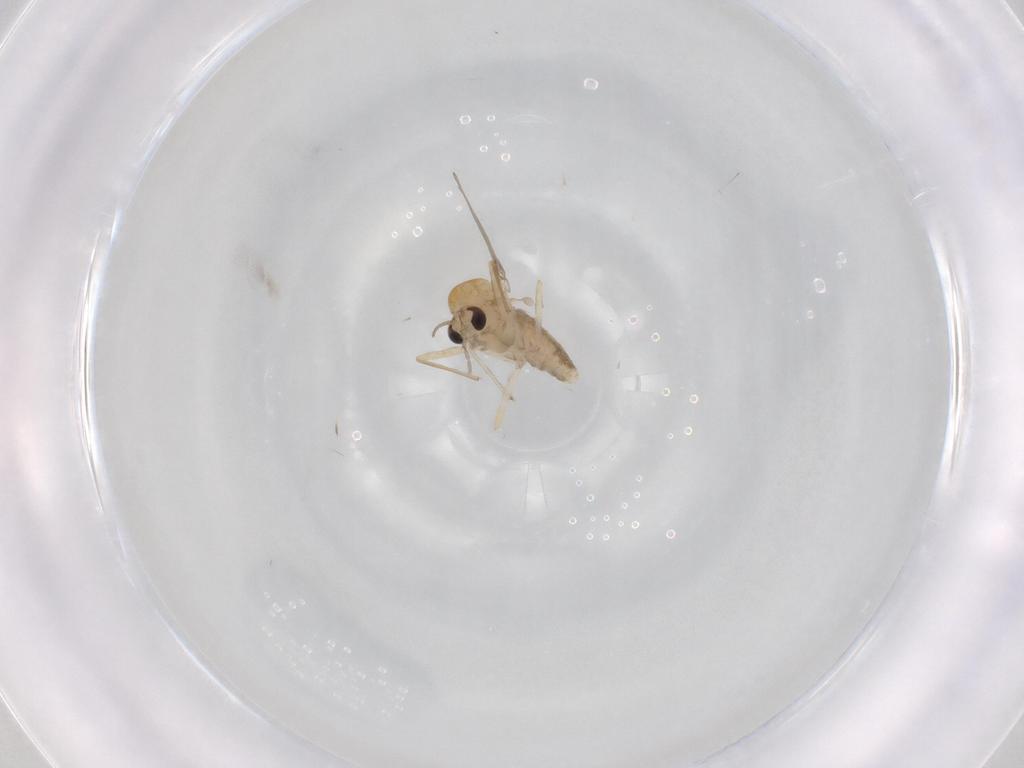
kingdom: Animalia
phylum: Arthropoda
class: Insecta
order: Diptera
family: Chironomidae
